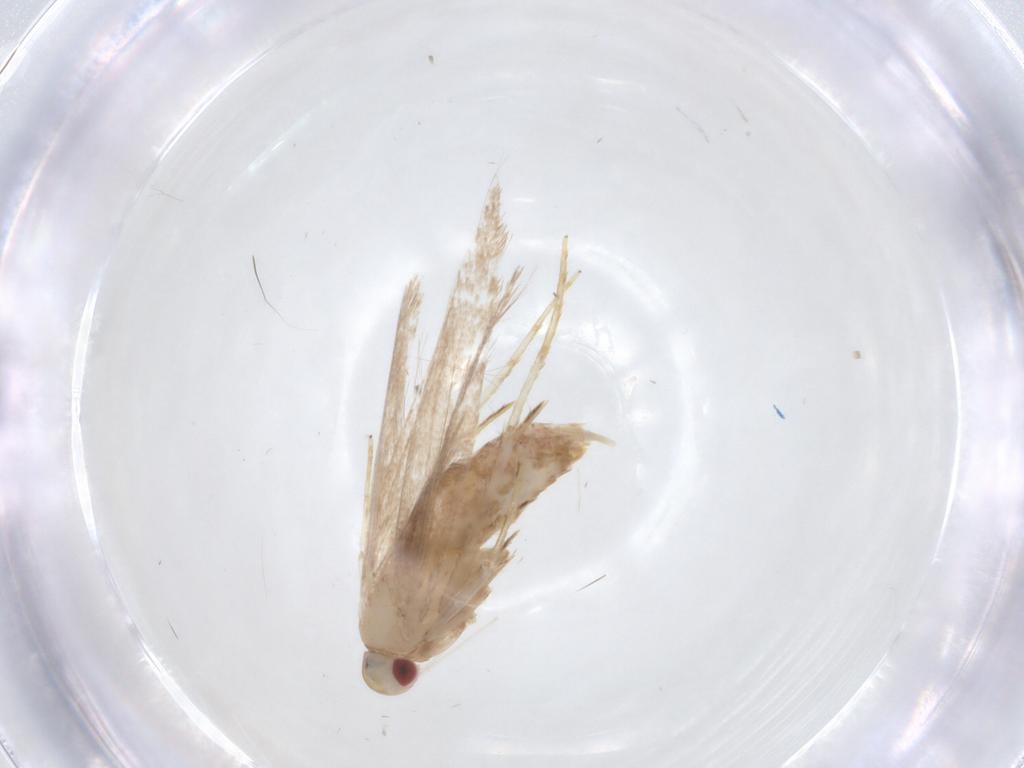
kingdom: Animalia
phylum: Arthropoda
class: Insecta
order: Lepidoptera
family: Cosmopterigidae
